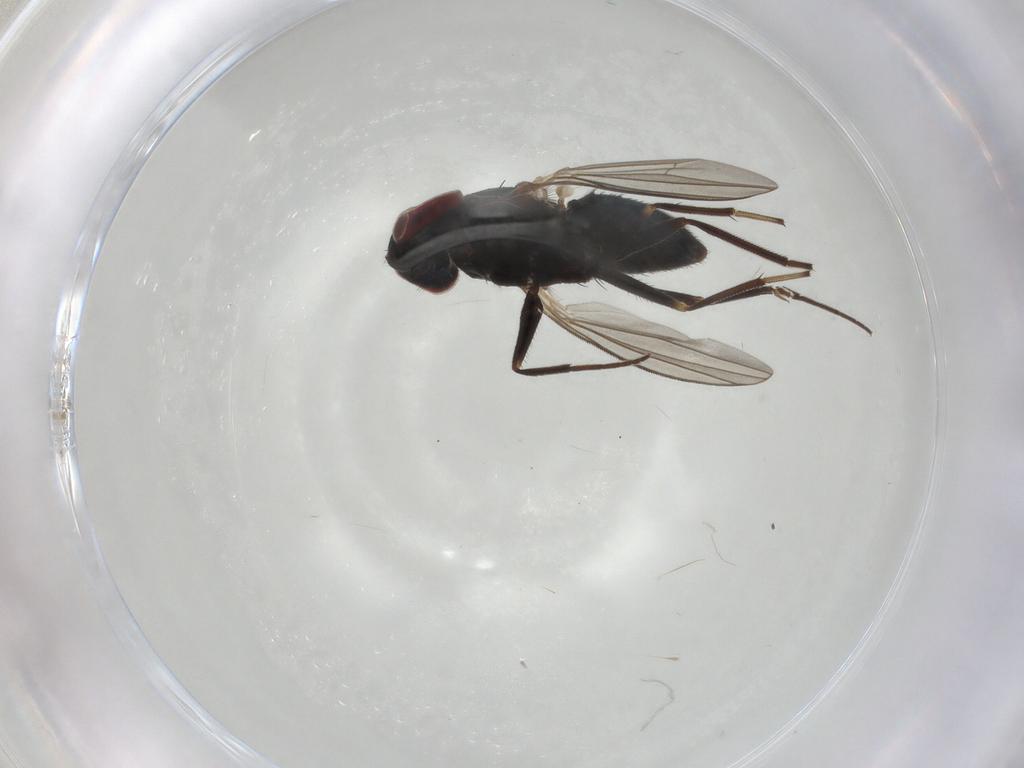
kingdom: Animalia
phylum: Arthropoda
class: Insecta
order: Diptera
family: Dolichopodidae
